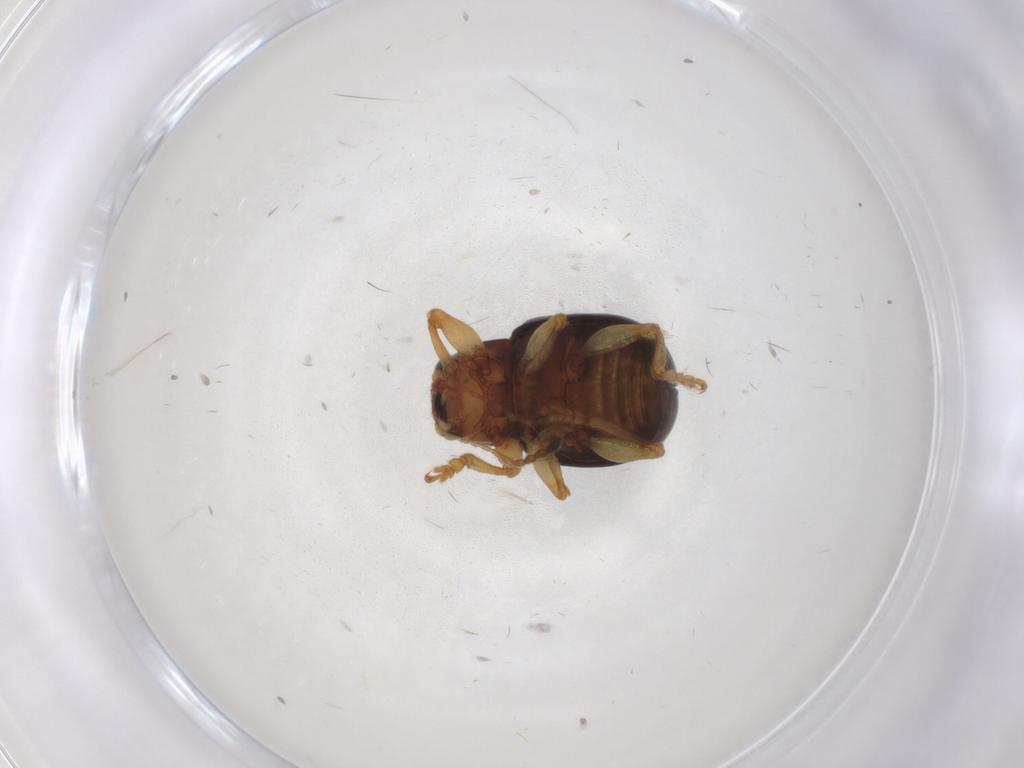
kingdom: Animalia
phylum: Arthropoda
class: Insecta
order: Coleoptera
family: Chrysomelidae
